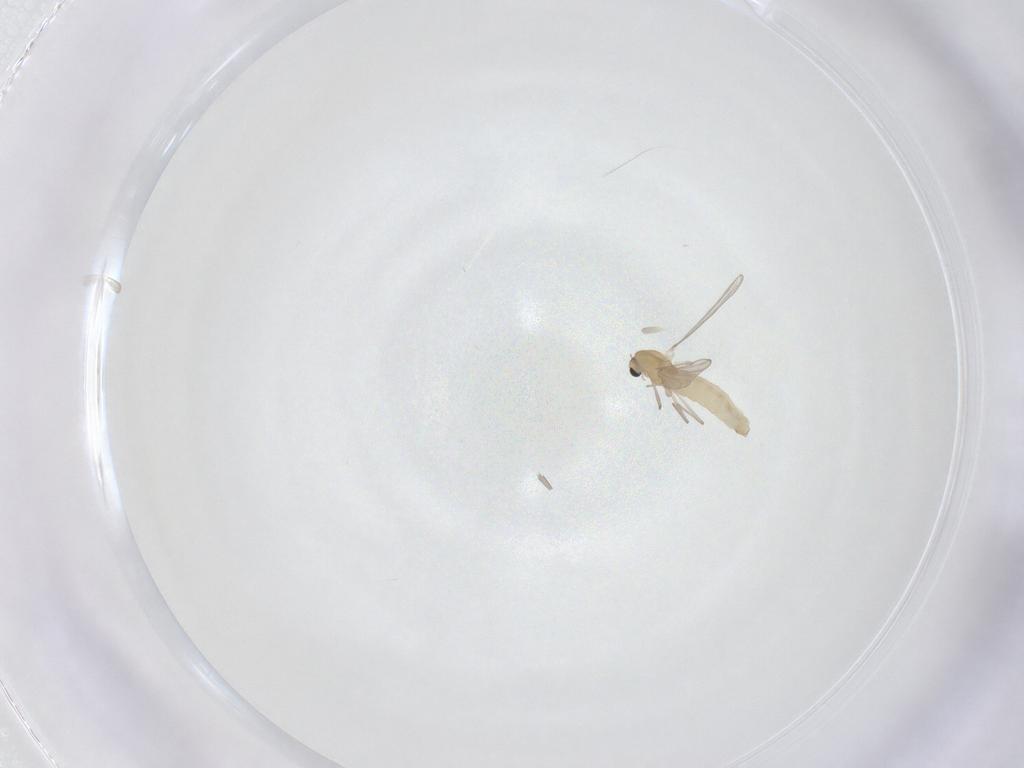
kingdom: Animalia
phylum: Arthropoda
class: Insecta
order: Diptera
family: Chironomidae
